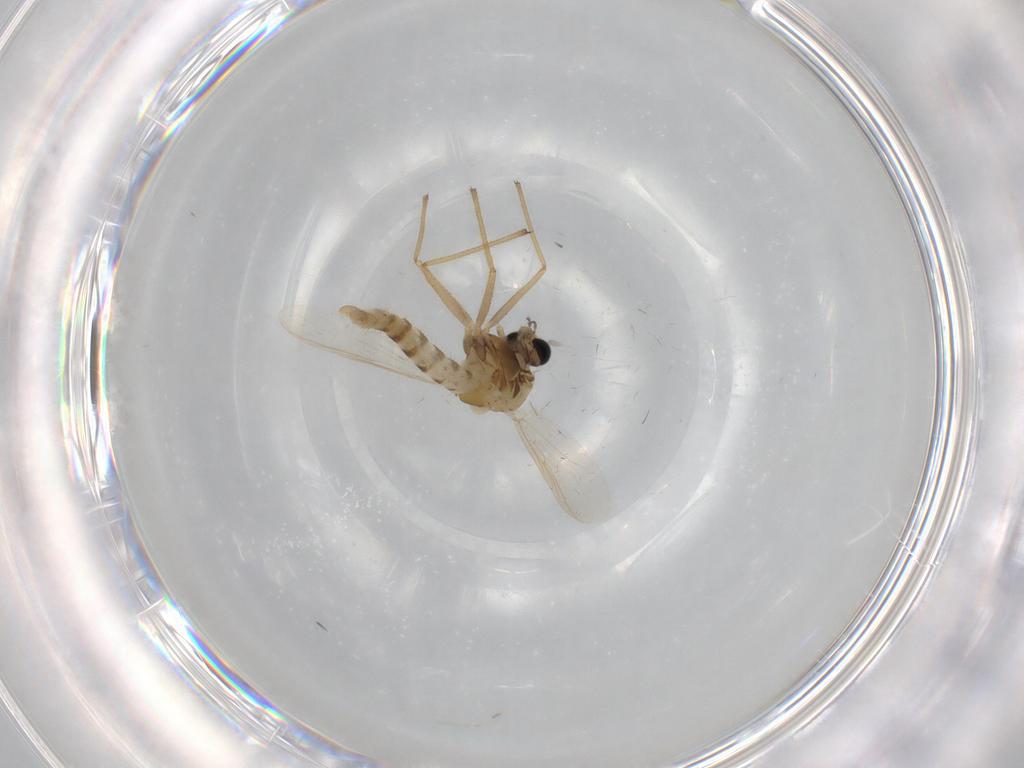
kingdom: Animalia
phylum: Arthropoda
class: Insecta
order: Diptera
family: Chironomidae
